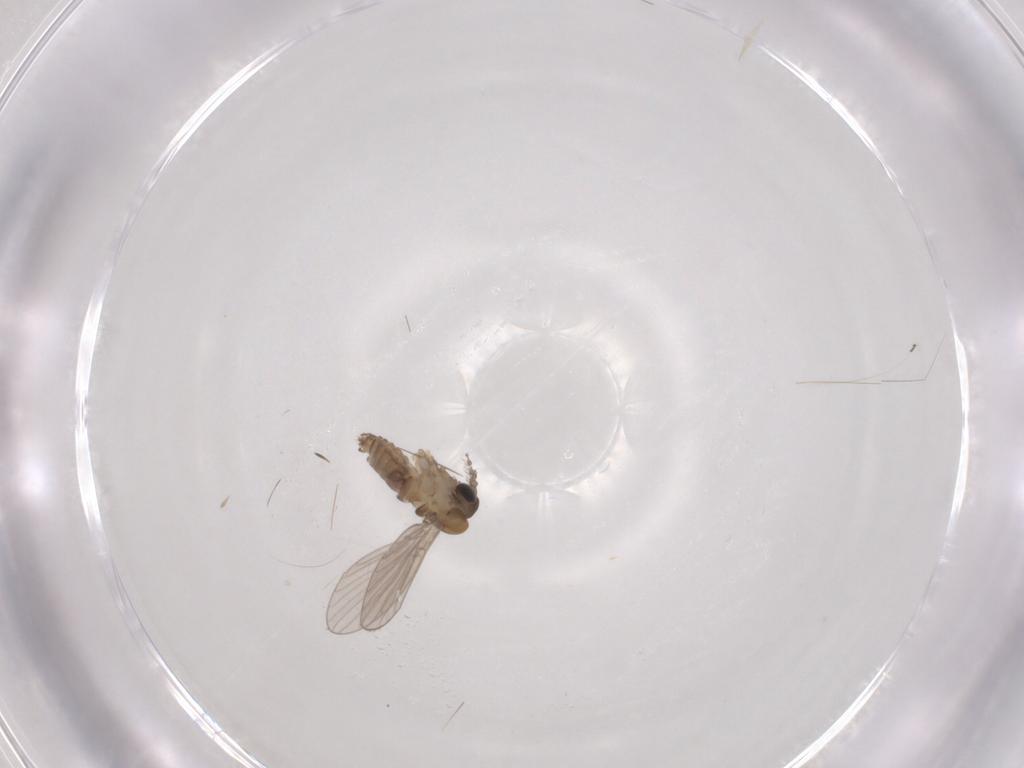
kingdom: Animalia
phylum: Arthropoda
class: Insecta
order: Diptera
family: Psychodidae
